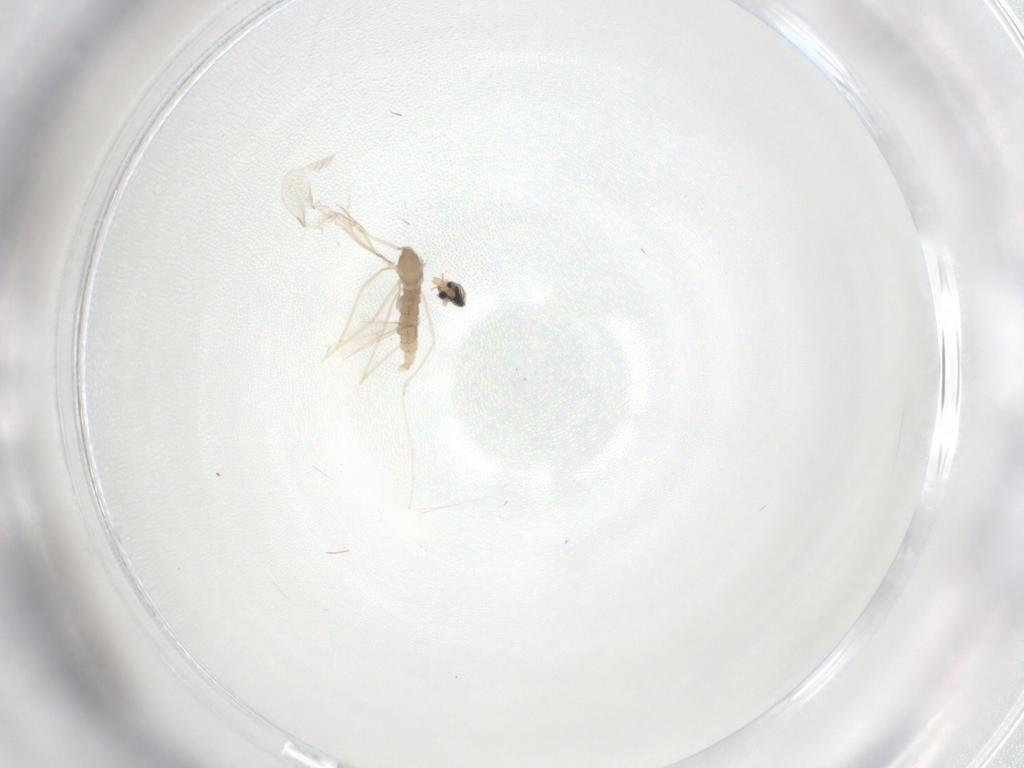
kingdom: Animalia
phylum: Arthropoda
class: Insecta
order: Diptera
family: Cecidomyiidae
